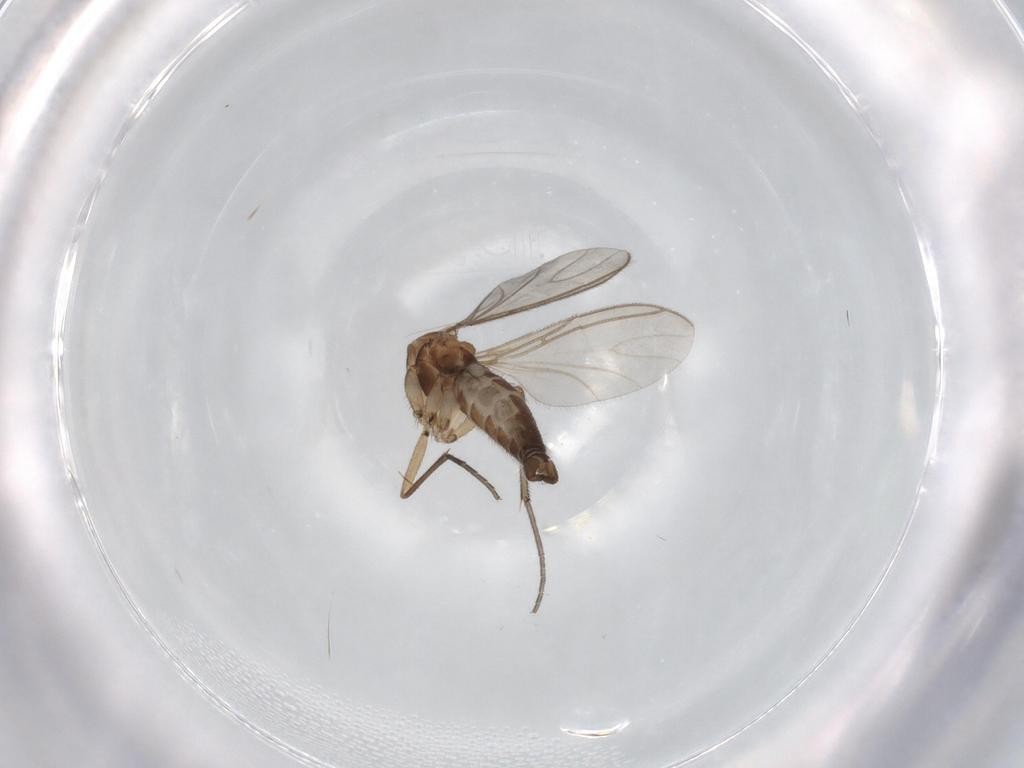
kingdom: Animalia
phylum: Arthropoda
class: Insecta
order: Diptera
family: Sciaridae
